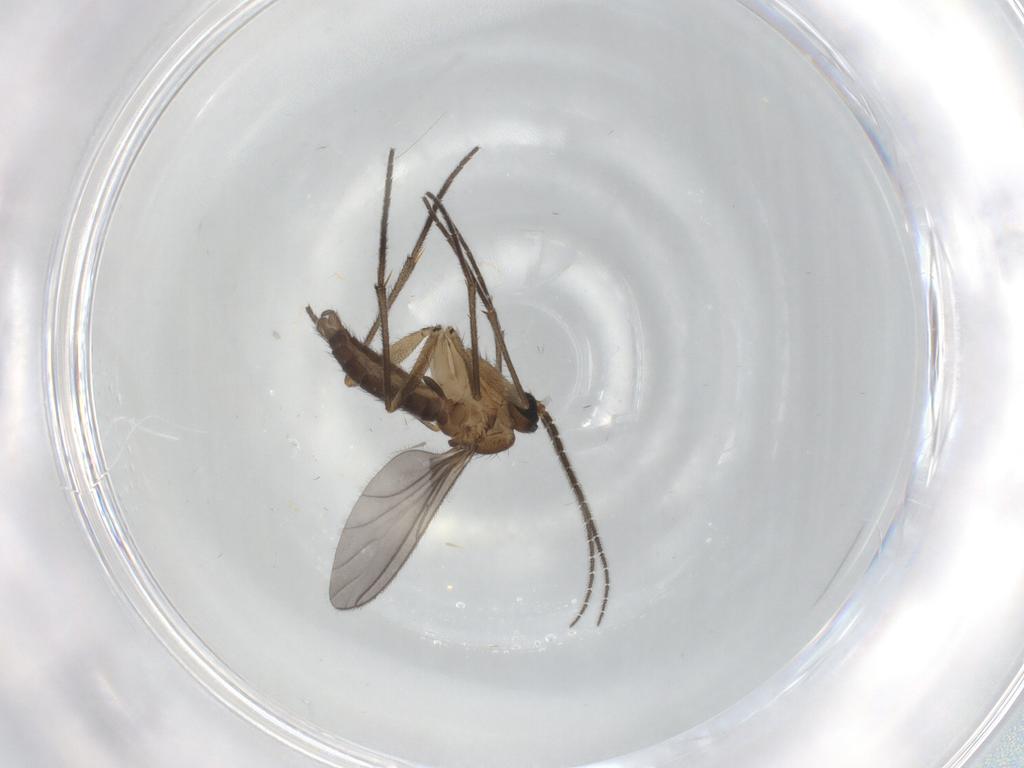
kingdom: Animalia
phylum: Arthropoda
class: Insecta
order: Diptera
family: Sciaridae
